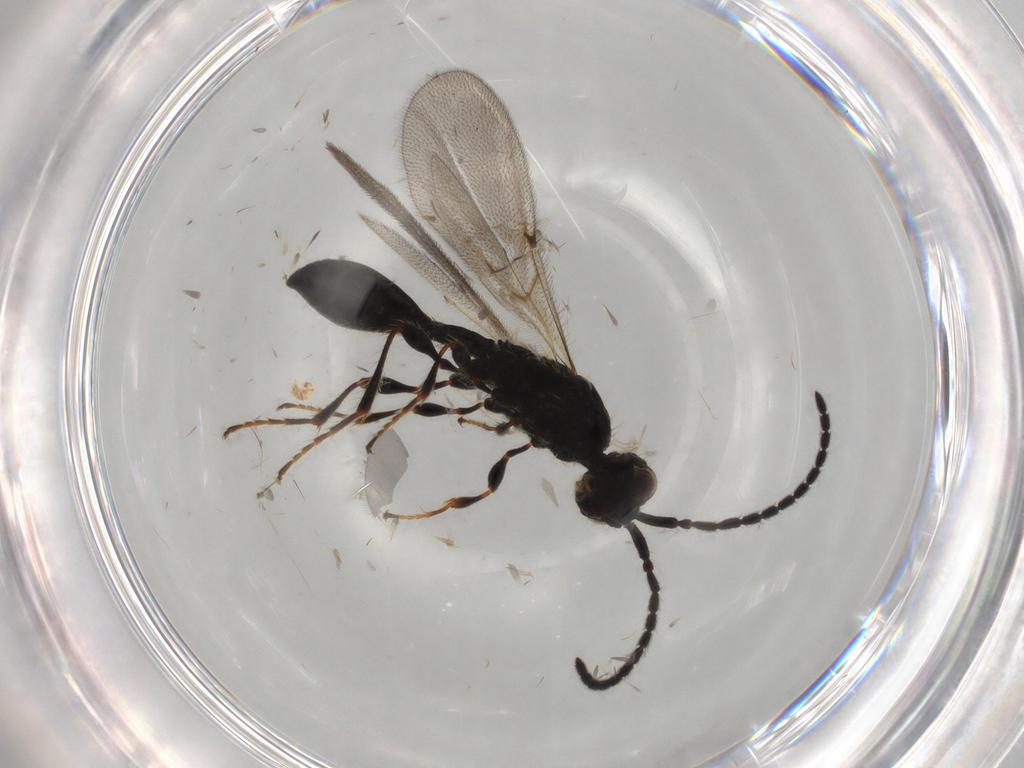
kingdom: Animalia
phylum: Arthropoda
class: Insecta
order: Hymenoptera
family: Diapriidae
